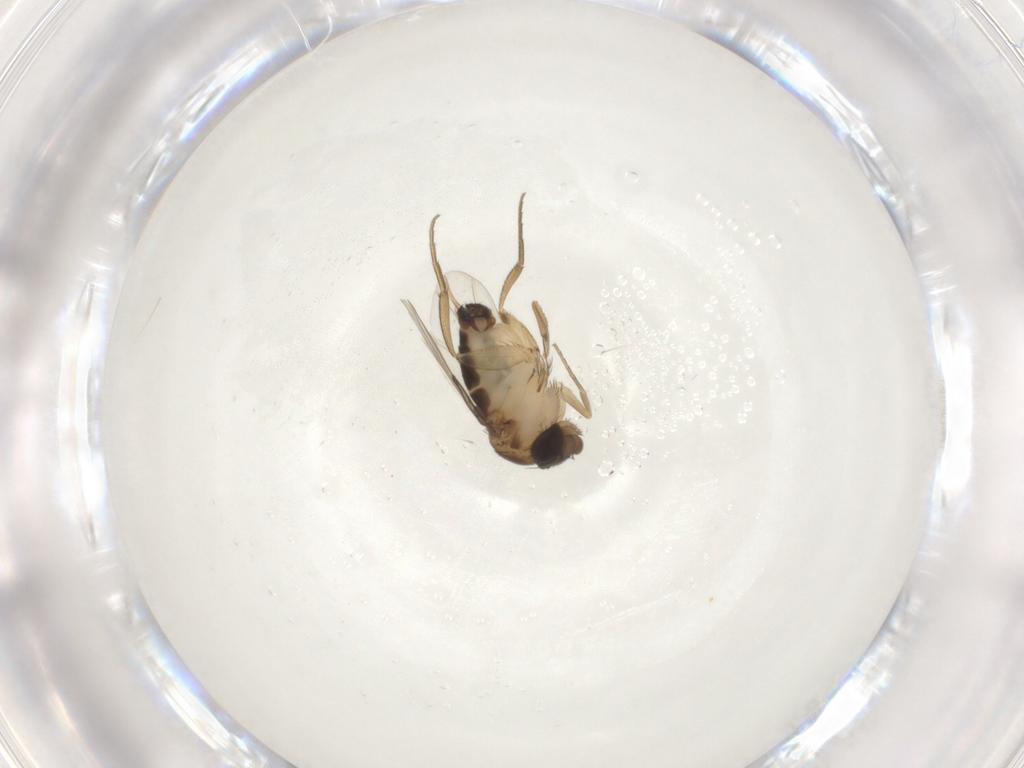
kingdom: Animalia
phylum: Arthropoda
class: Insecta
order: Diptera
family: Phoridae
